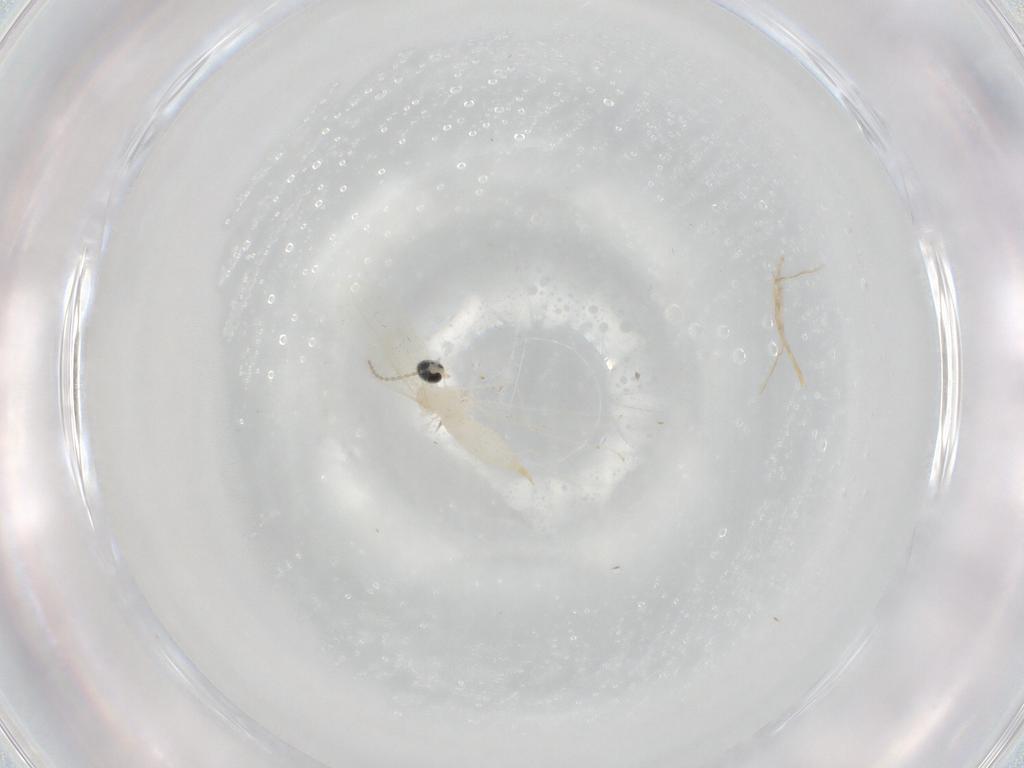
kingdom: Animalia
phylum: Arthropoda
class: Insecta
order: Diptera
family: Cecidomyiidae
